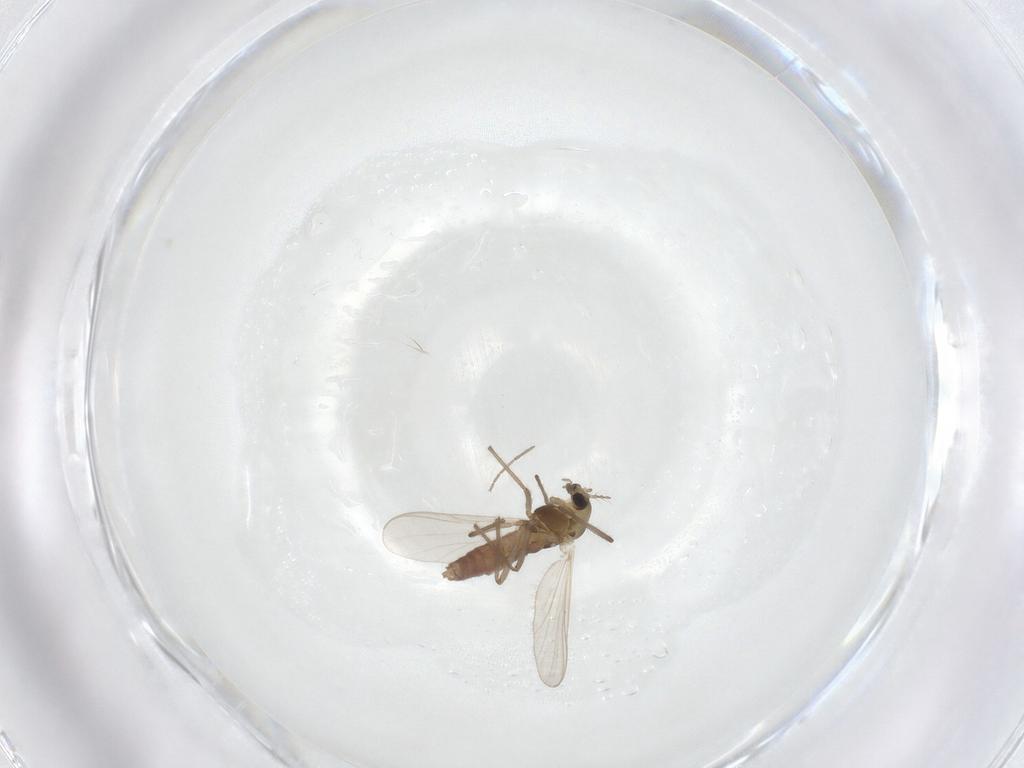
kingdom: Animalia
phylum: Arthropoda
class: Insecta
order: Diptera
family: Chironomidae
